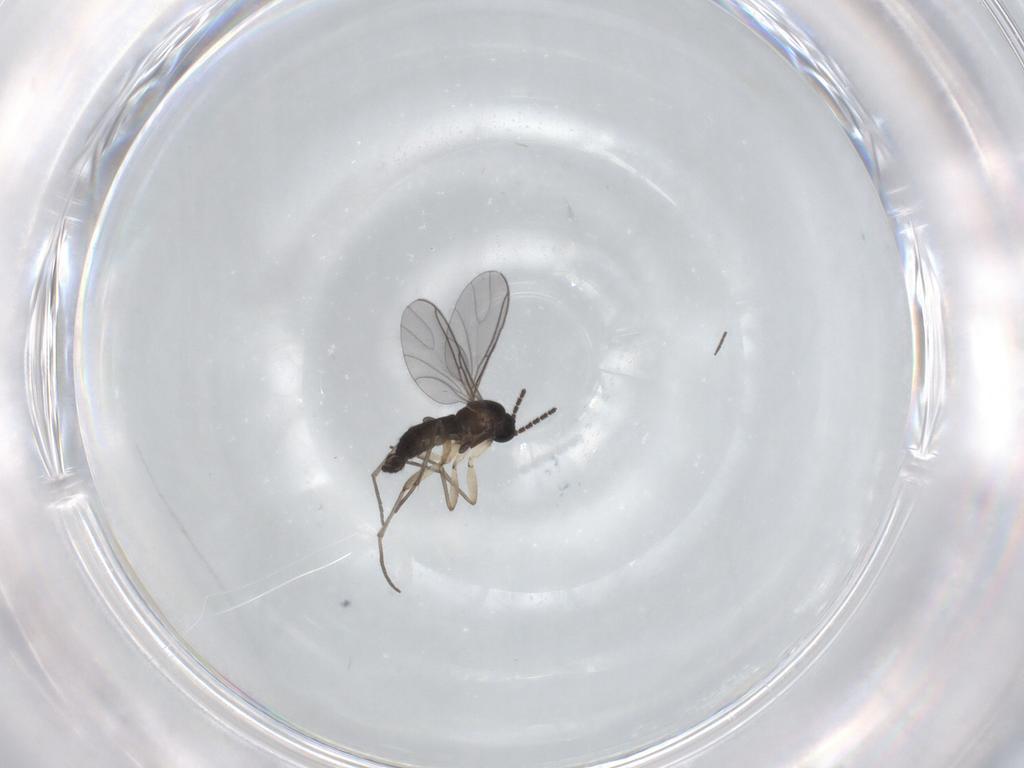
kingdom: Animalia
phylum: Arthropoda
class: Insecta
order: Diptera
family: Sciaridae
